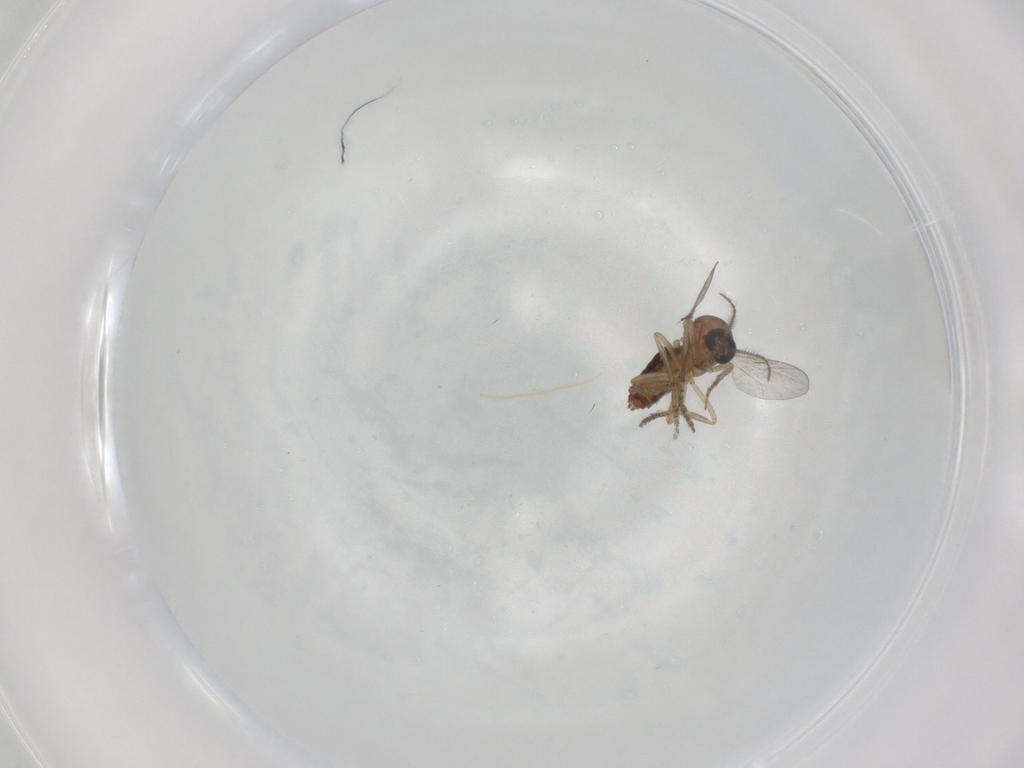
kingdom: Animalia
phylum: Arthropoda
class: Insecta
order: Diptera
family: Ceratopogonidae
